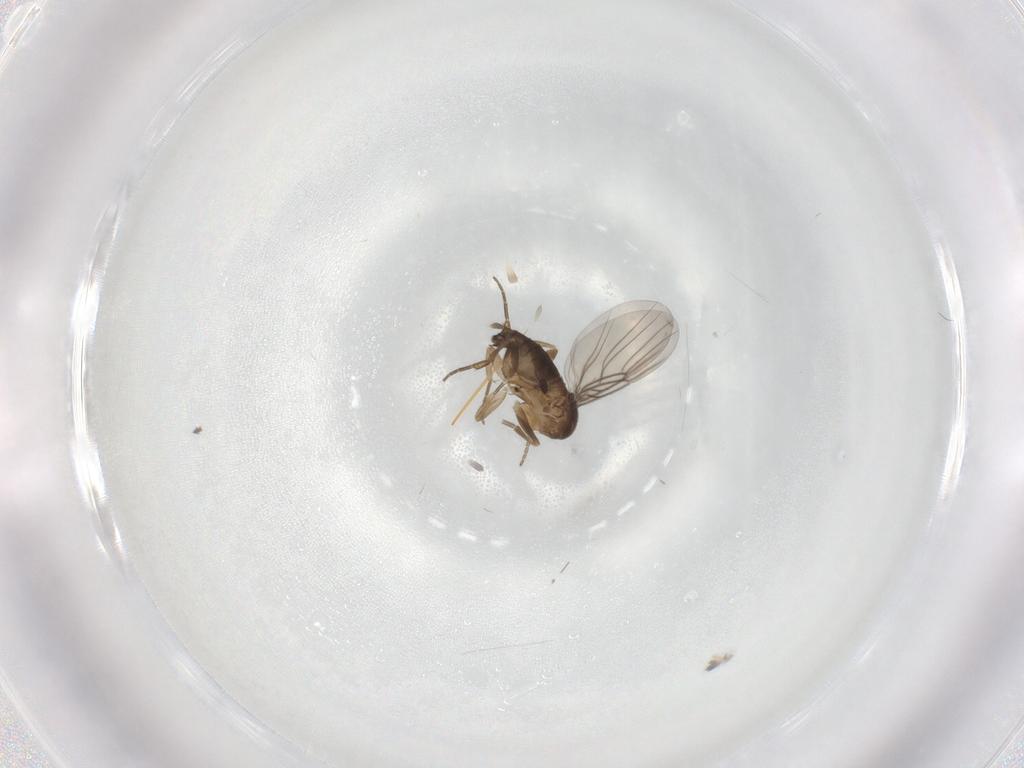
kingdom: Animalia
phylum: Arthropoda
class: Insecta
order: Diptera
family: Phoridae
